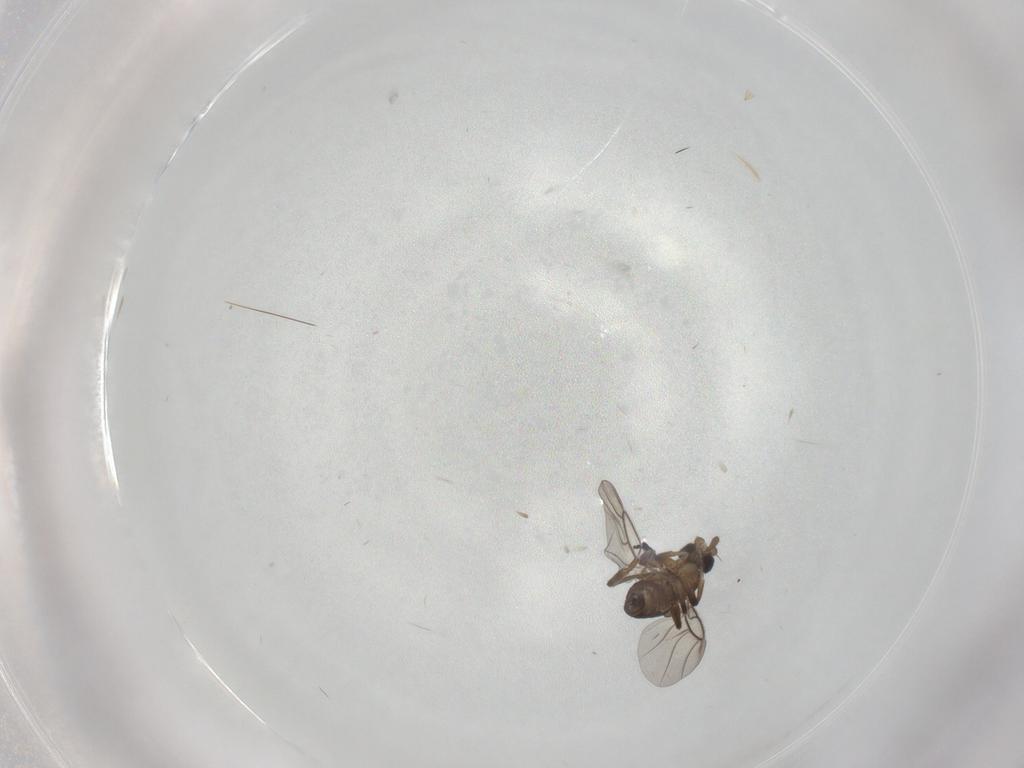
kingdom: Animalia
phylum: Arthropoda
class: Insecta
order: Diptera
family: Phoridae
